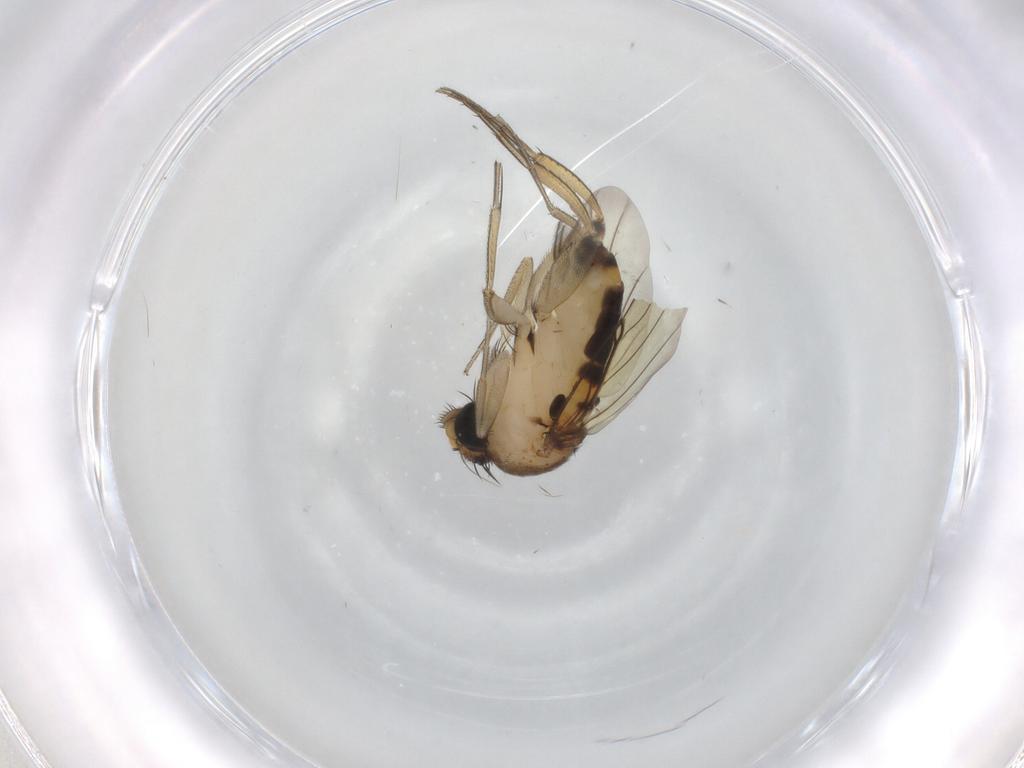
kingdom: Animalia
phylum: Arthropoda
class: Insecta
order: Diptera
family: Phoridae
